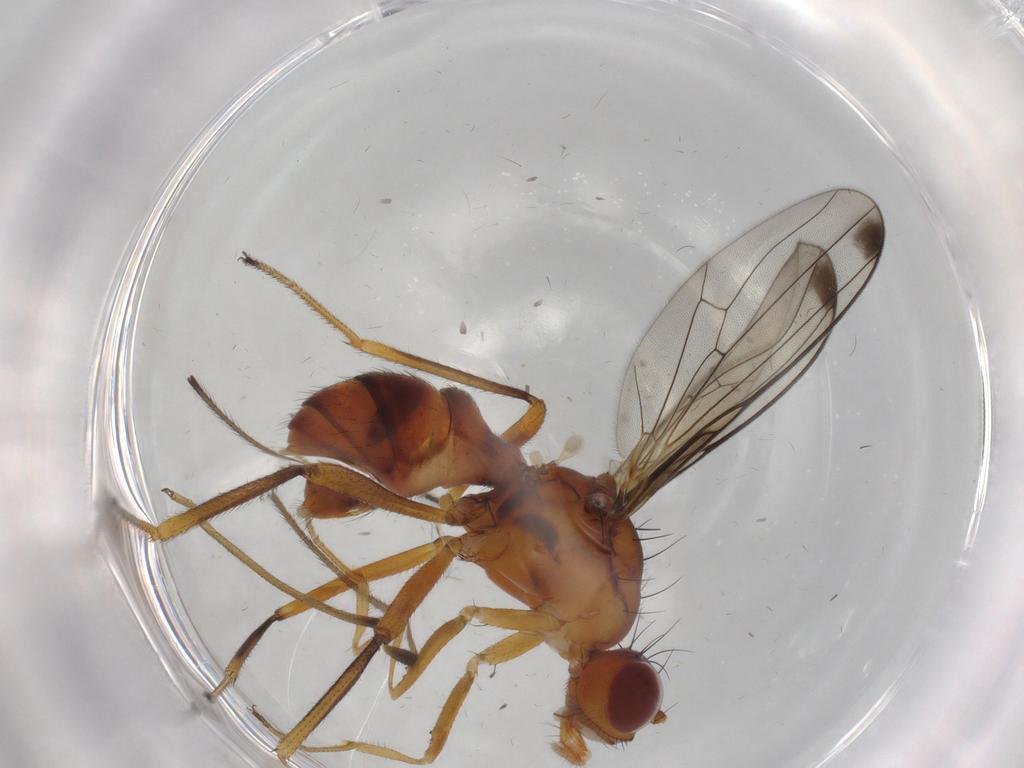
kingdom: Animalia
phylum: Arthropoda
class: Insecta
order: Diptera
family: Sepsidae
